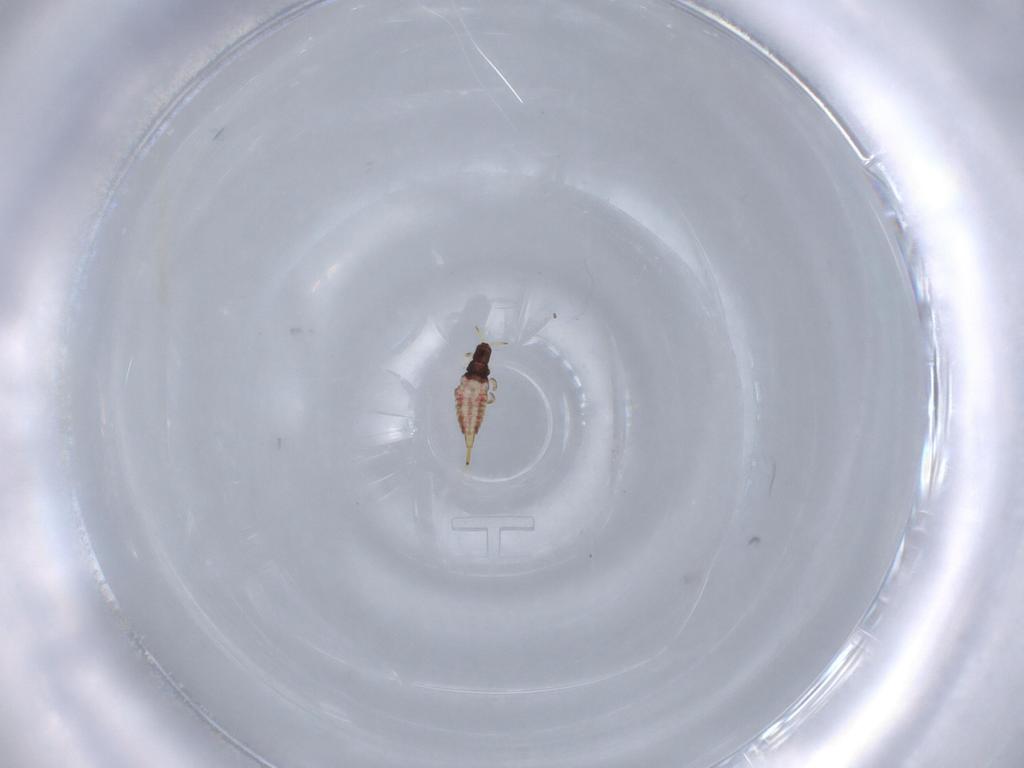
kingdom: Animalia
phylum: Arthropoda
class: Insecta
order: Thysanoptera
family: Phlaeothripidae
